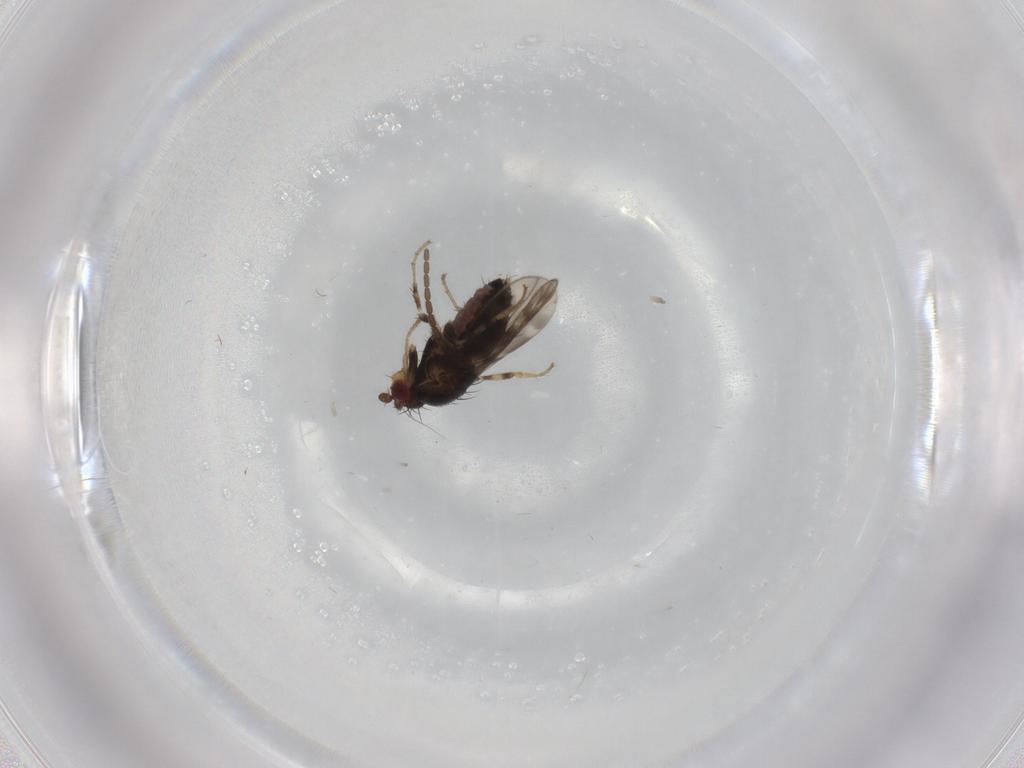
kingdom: Animalia
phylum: Arthropoda
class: Insecta
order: Diptera
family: Sphaeroceridae
